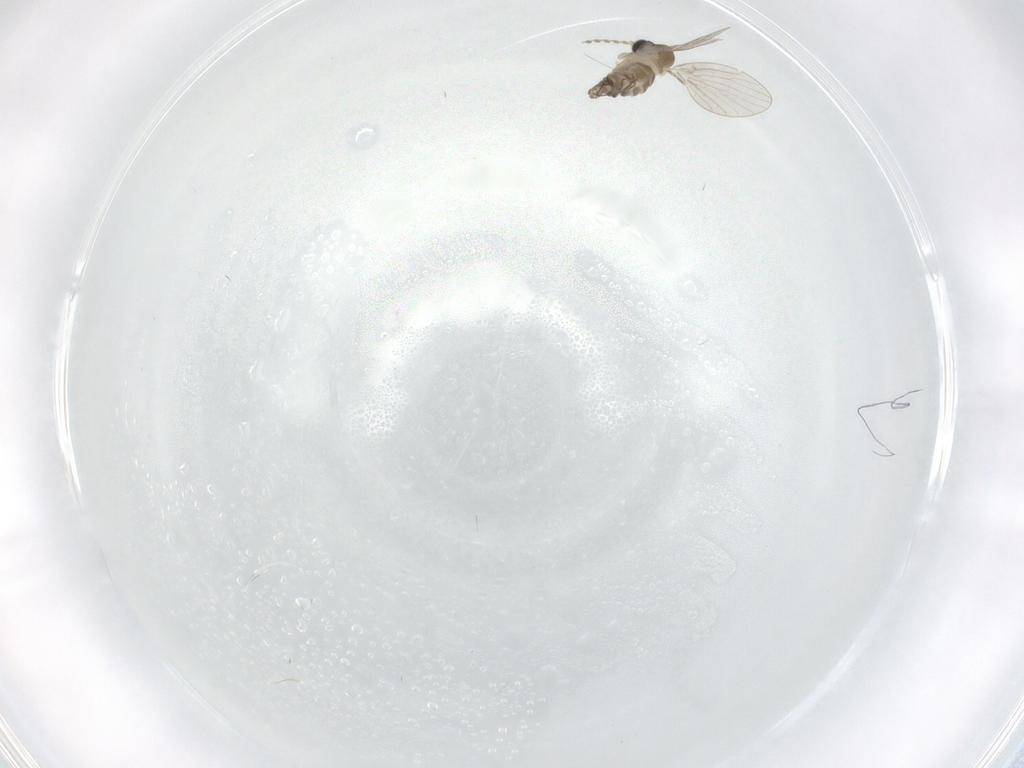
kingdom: Animalia
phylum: Arthropoda
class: Insecta
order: Diptera
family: Psychodidae
